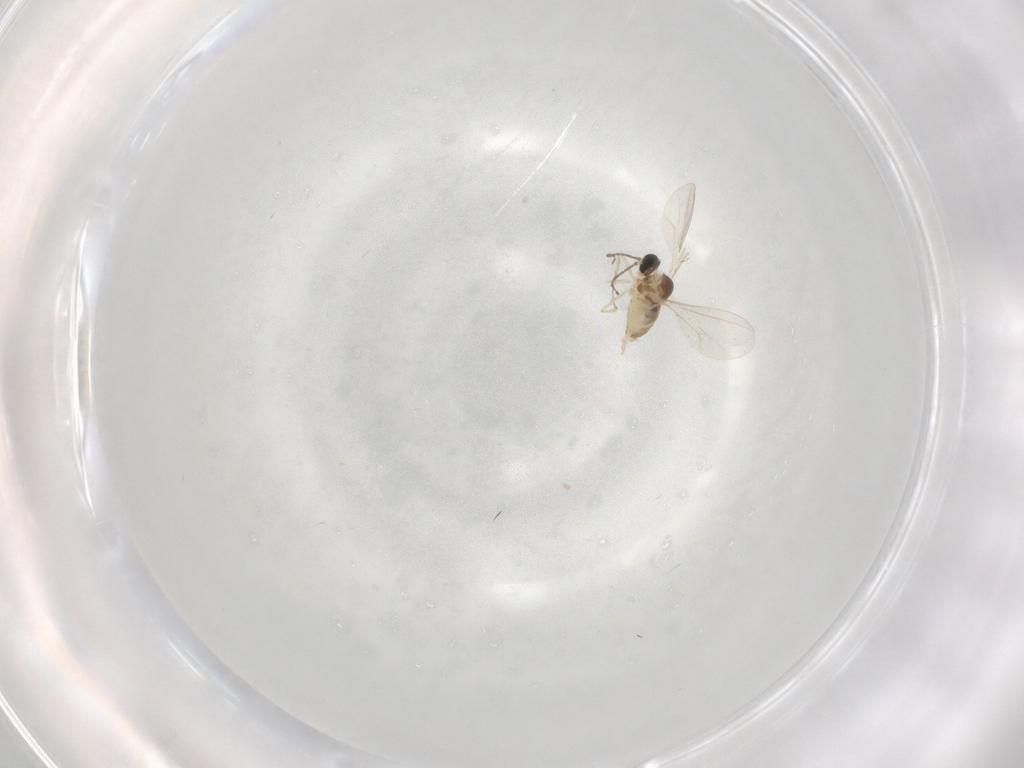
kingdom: Animalia
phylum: Arthropoda
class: Insecta
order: Diptera
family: Cecidomyiidae
